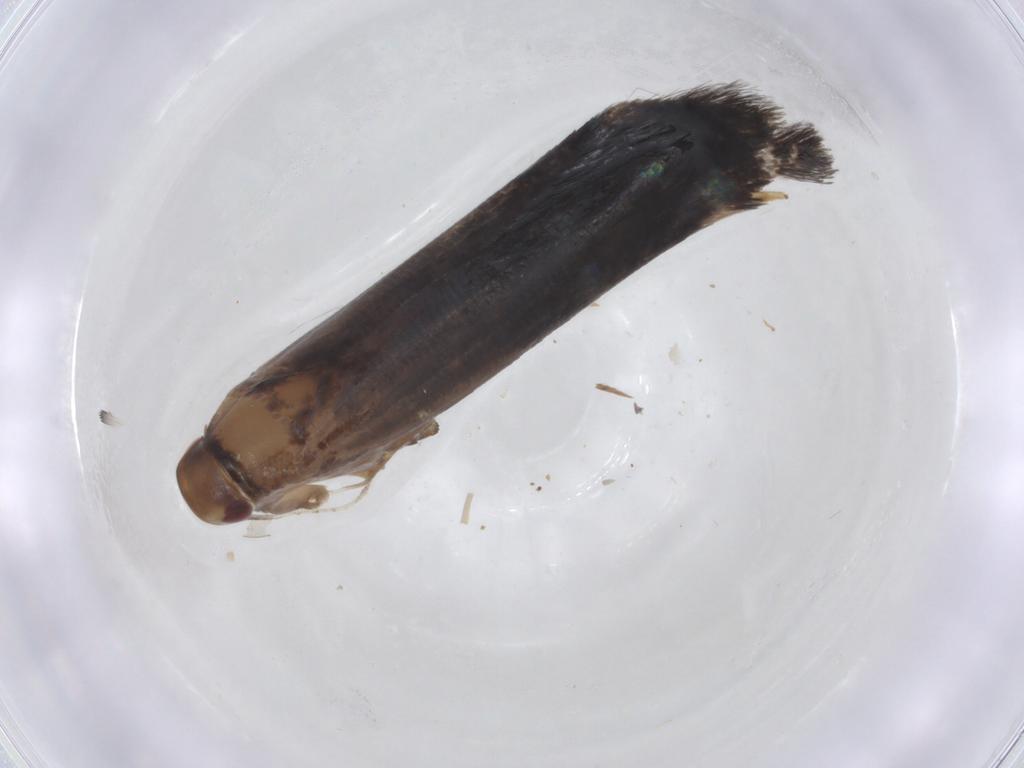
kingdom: Animalia
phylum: Arthropoda
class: Insecta
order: Lepidoptera
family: Cosmopterigidae
